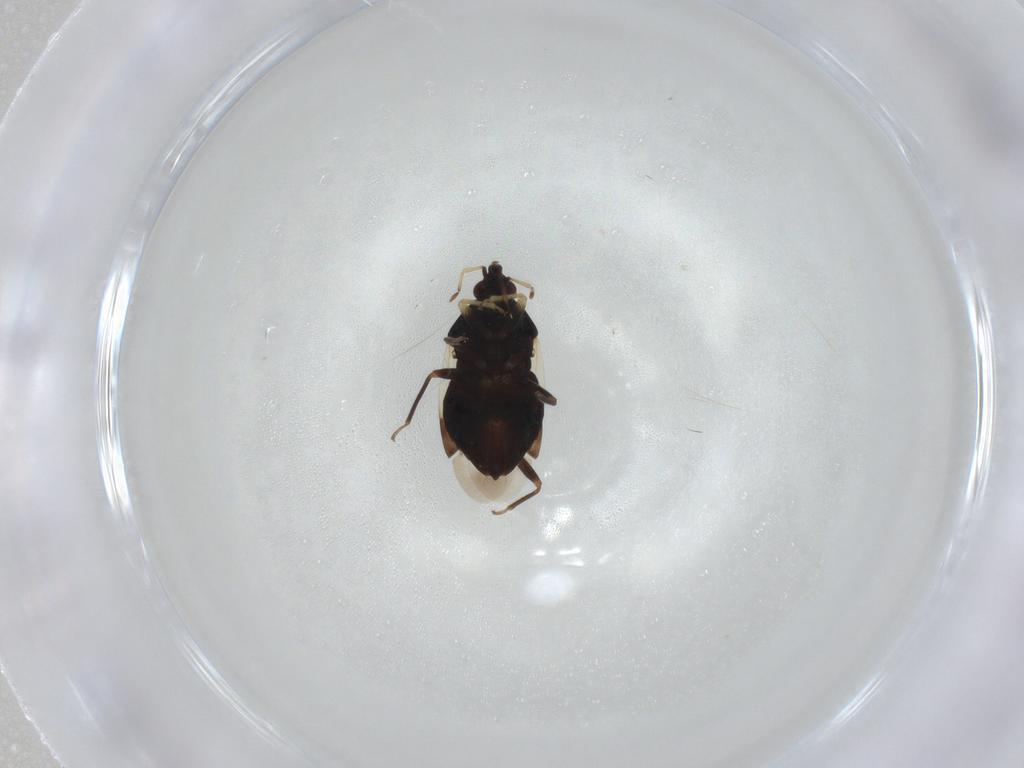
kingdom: Animalia
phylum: Arthropoda
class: Insecta
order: Hemiptera
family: Anthocoridae
